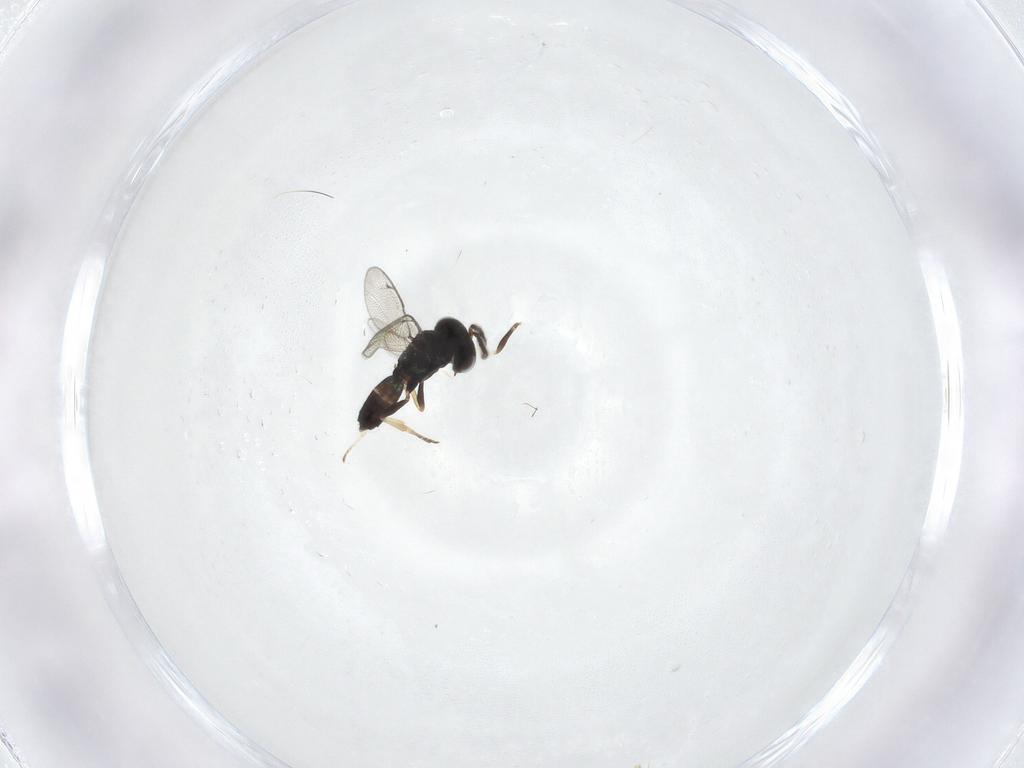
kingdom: Animalia
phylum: Arthropoda
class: Insecta
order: Hymenoptera
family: Pteromalidae
